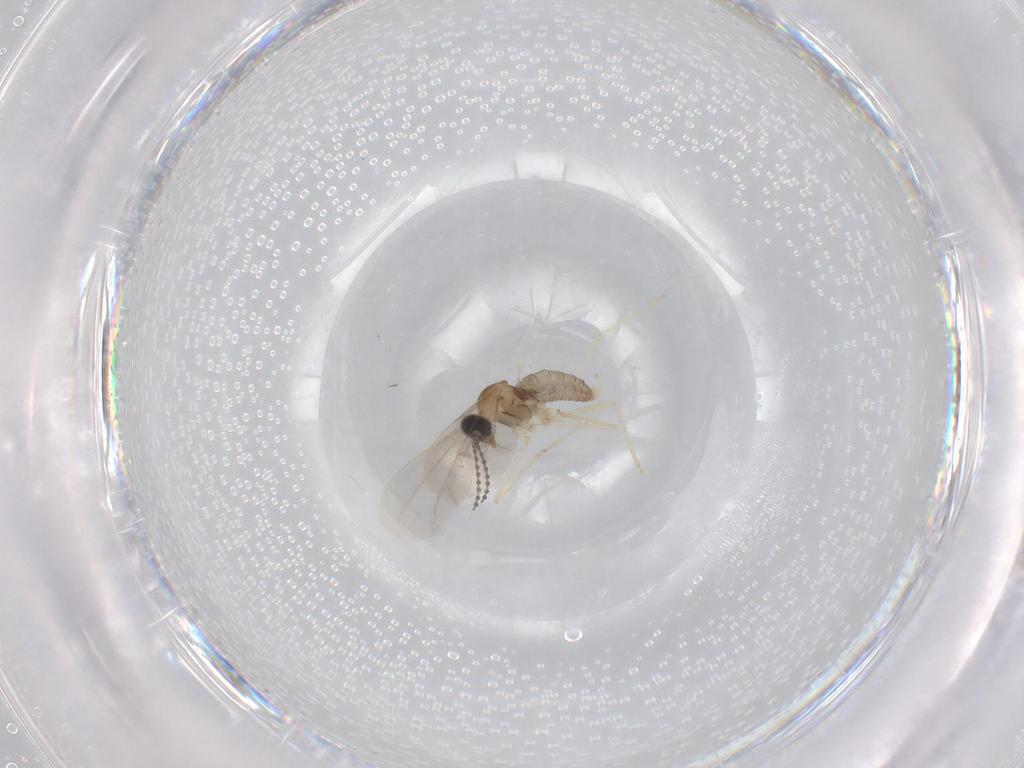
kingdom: Animalia
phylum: Arthropoda
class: Insecta
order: Diptera
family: Cecidomyiidae
